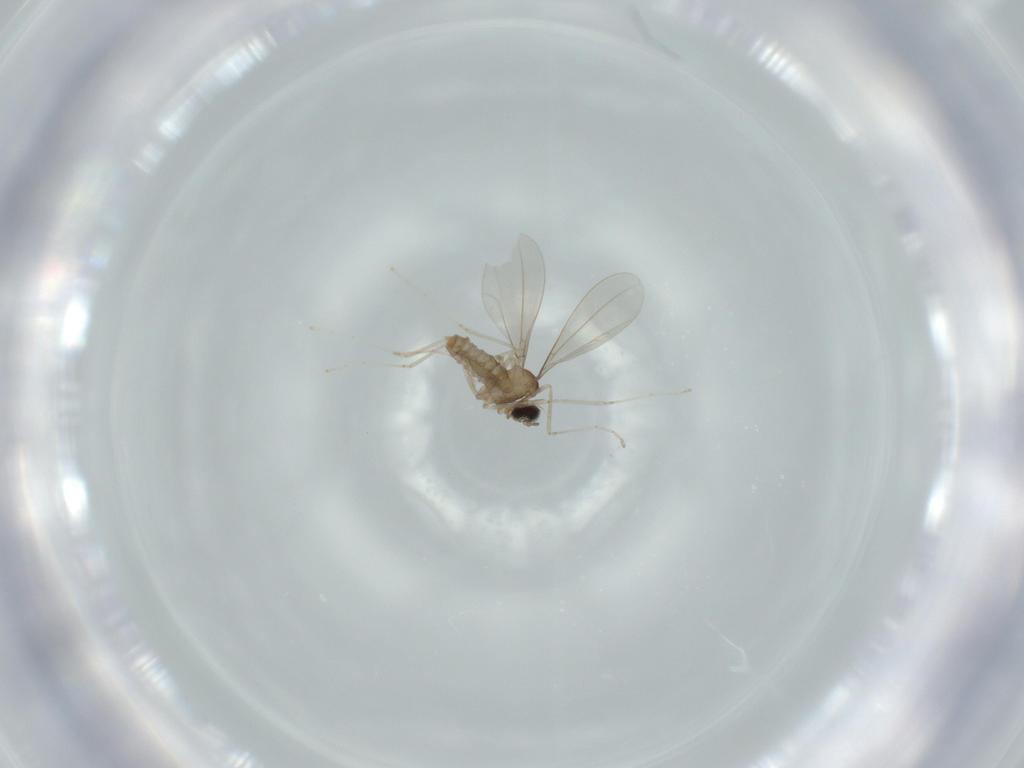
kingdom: Animalia
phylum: Arthropoda
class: Insecta
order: Diptera
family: Cecidomyiidae
